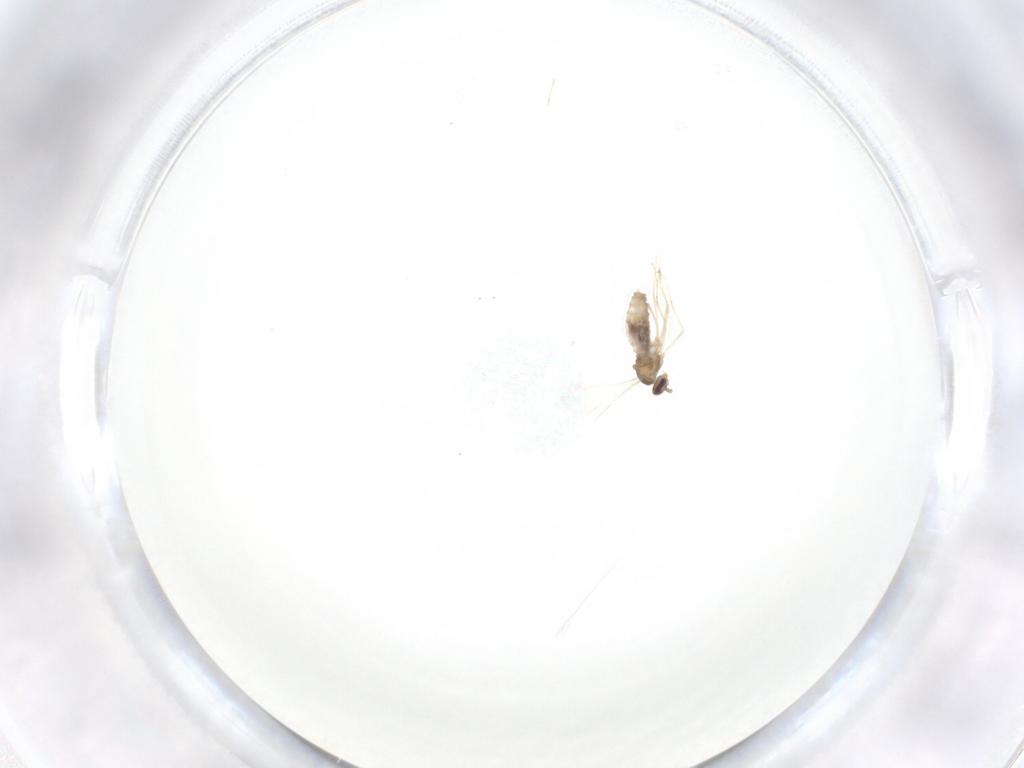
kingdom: Animalia
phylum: Arthropoda
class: Insecta
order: Diptera
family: Cecidomyiidae
